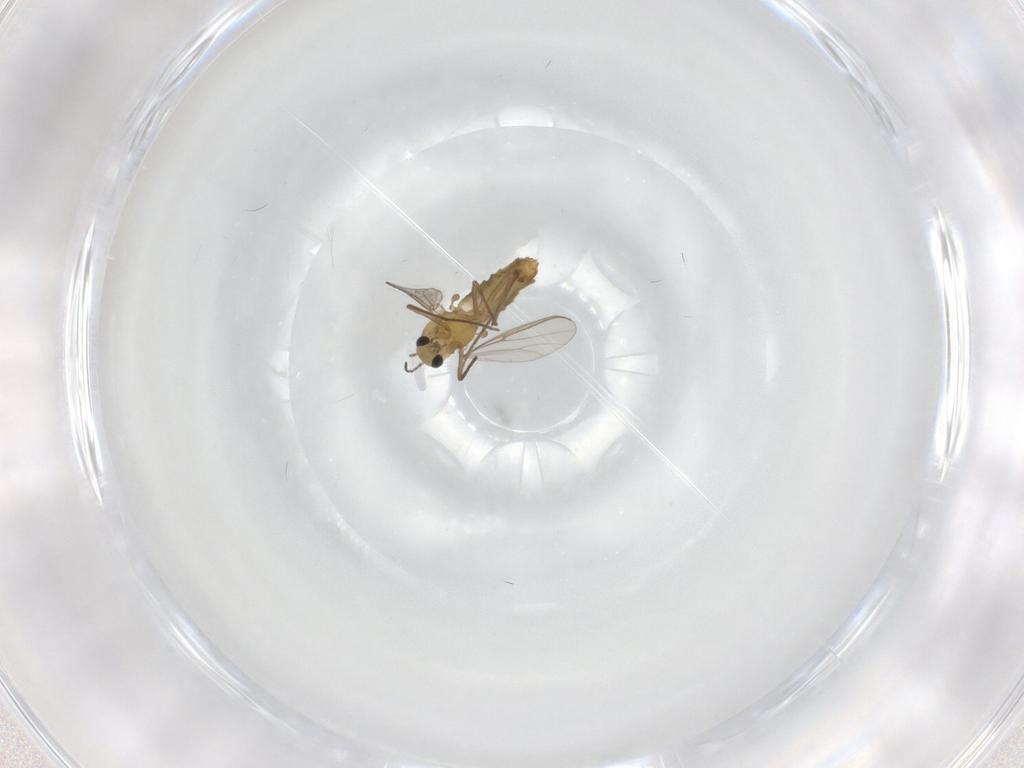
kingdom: Animalia
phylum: Arthropoda
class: Insecta
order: Diptera
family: Chironomidae
